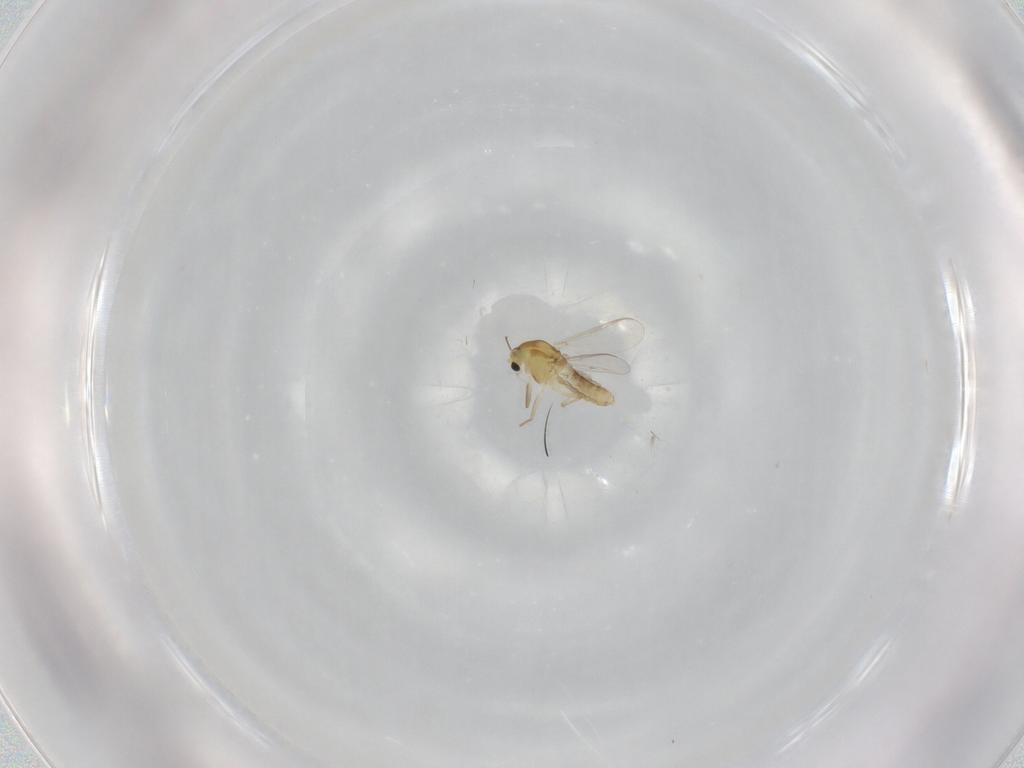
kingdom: Animalia
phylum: Arthropoda
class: Insecta
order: Diptera
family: Chironomidae
